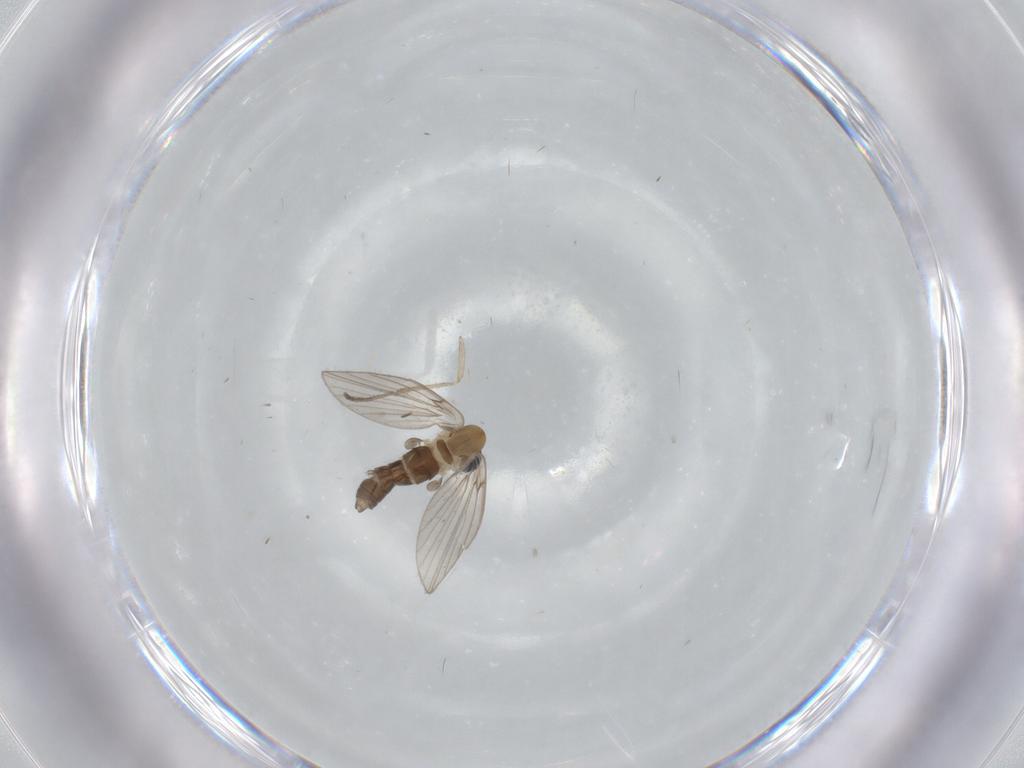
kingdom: Animalia
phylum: Arthropoda
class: Insecta
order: Diptera
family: Psychodidae
